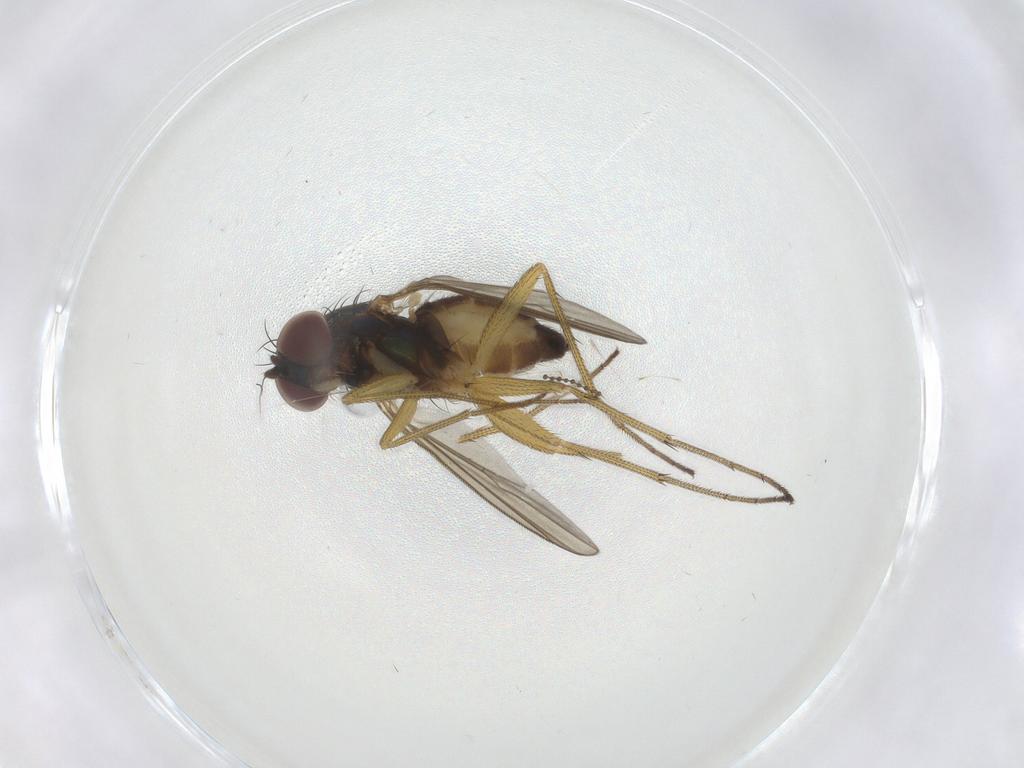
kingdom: Animalia
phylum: Arthropoda
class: Insecta
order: Diptera
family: Dolichopodidae
